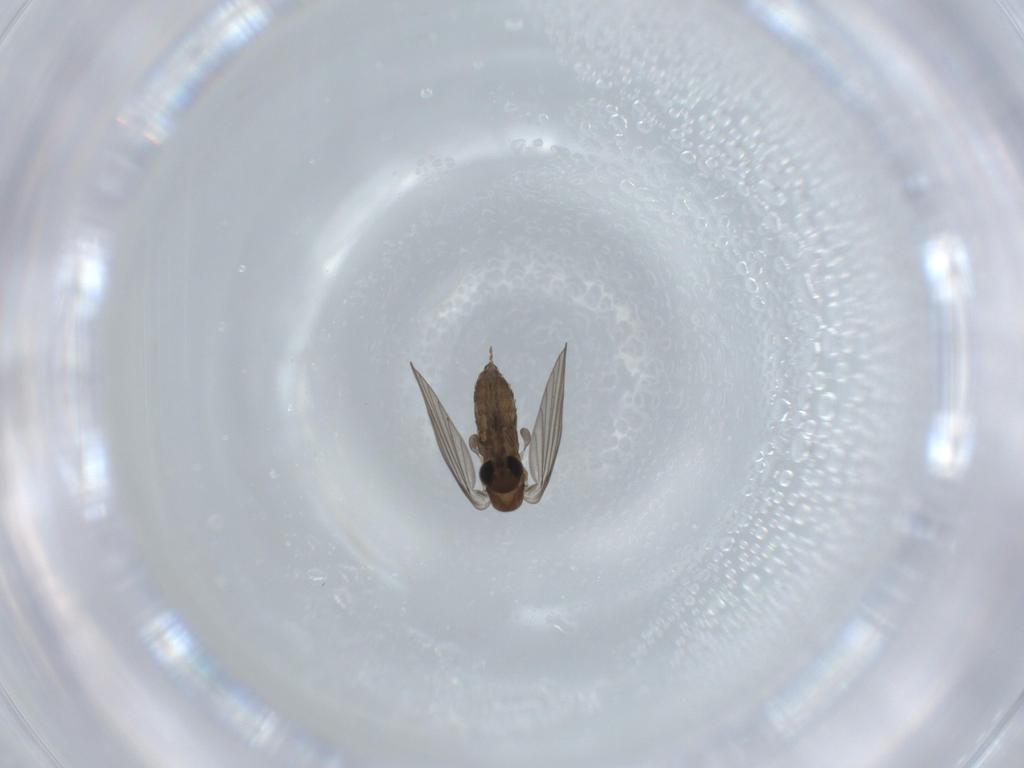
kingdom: Animalia
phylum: Arthropoda
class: Insecta
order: Diptera
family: Psychodidae
